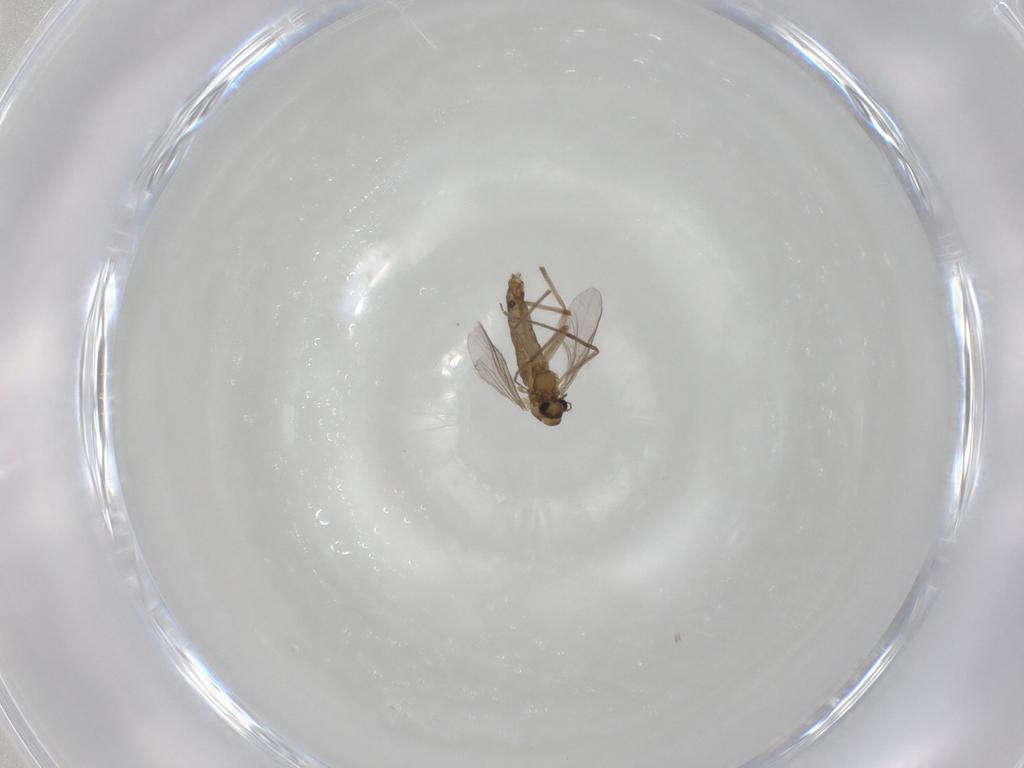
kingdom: Animalia
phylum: Arthropoda
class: Insecta
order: Diptera
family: Chironomidae
